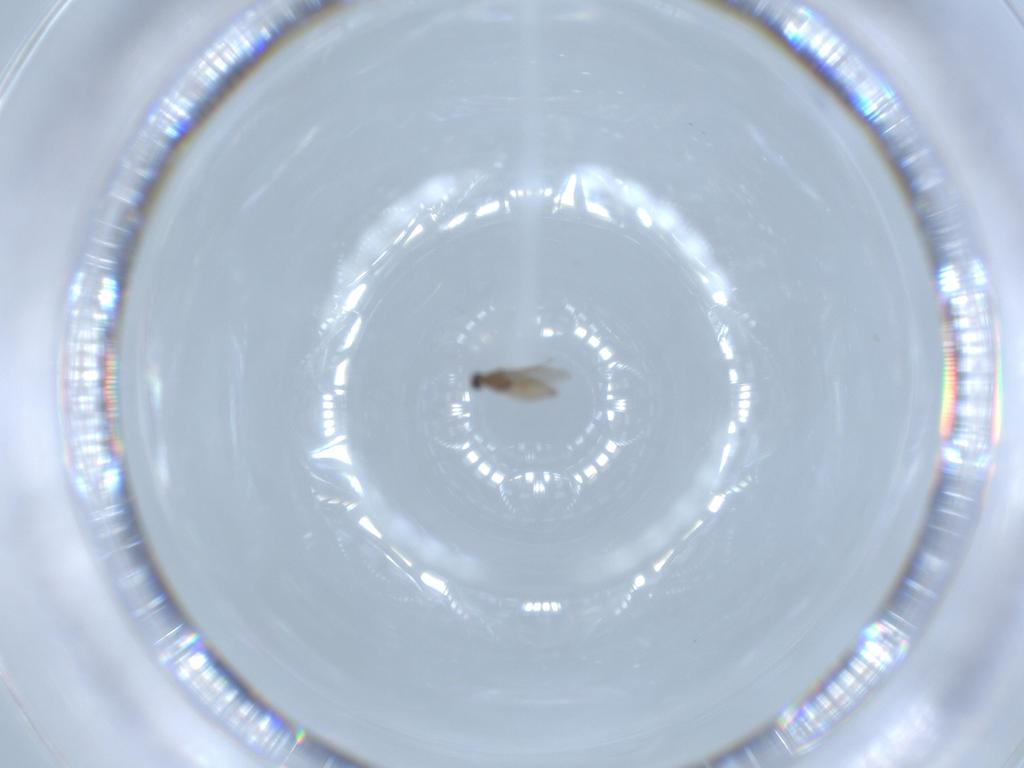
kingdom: Animalia
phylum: Arthropoda
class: Insecta
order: Diptera
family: Cecidomyiidae
